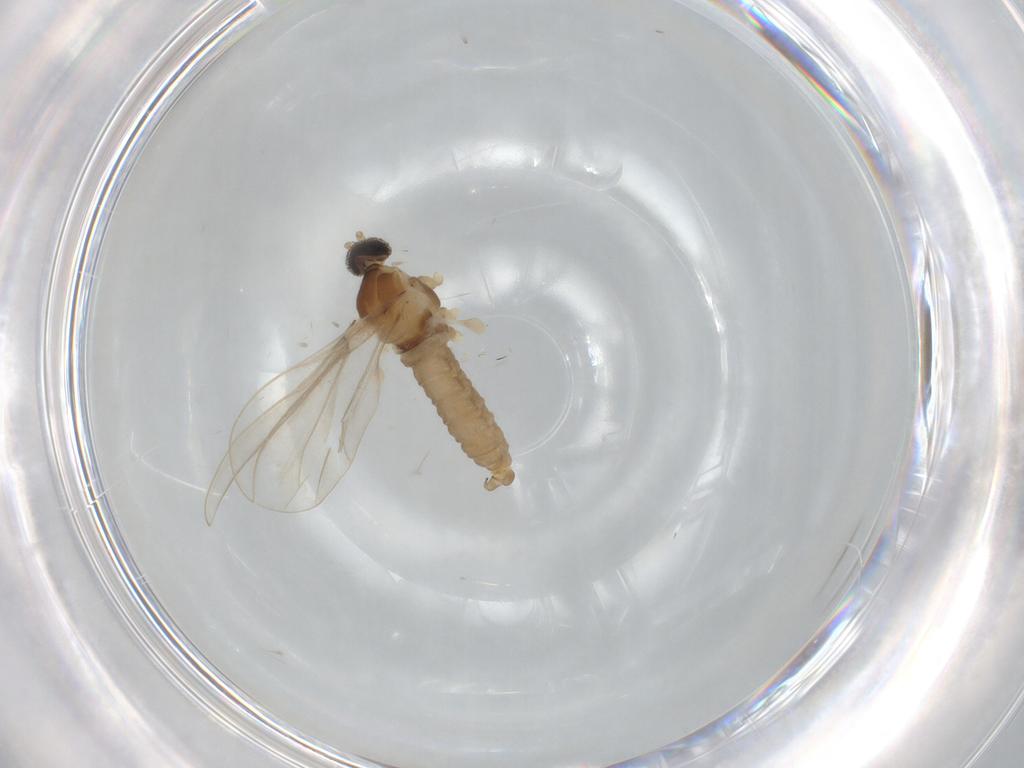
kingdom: Animalia
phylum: Arthropoda
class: Insecta
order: Diptera
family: Cecidomyiidae
